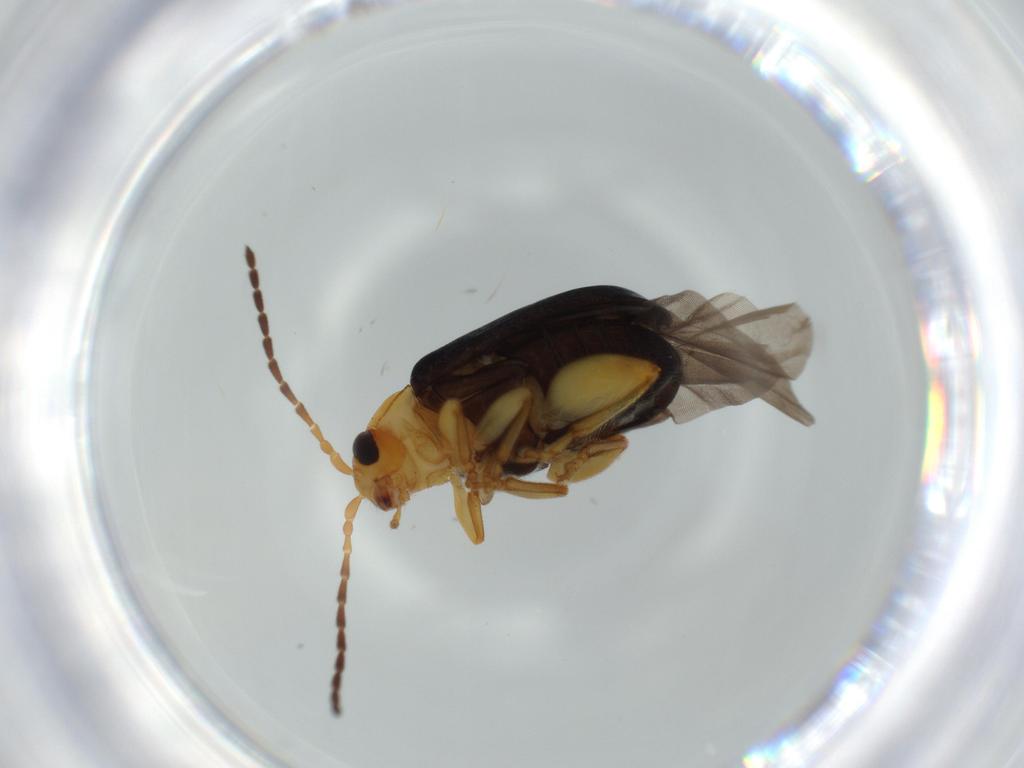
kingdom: Animalia
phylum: Arthropoda
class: Insecta
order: Coleoptera
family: Chrysomelidae
